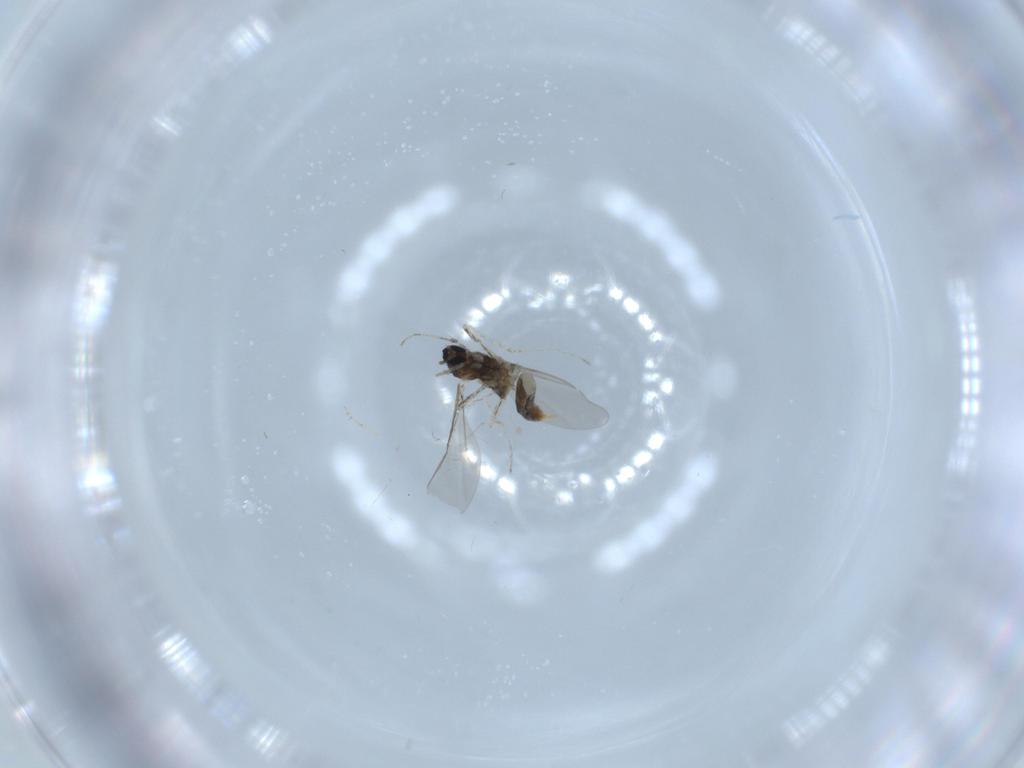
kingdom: Animalia
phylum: Arthropoda
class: Insecta
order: Diptera
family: Cecidomyiidae
